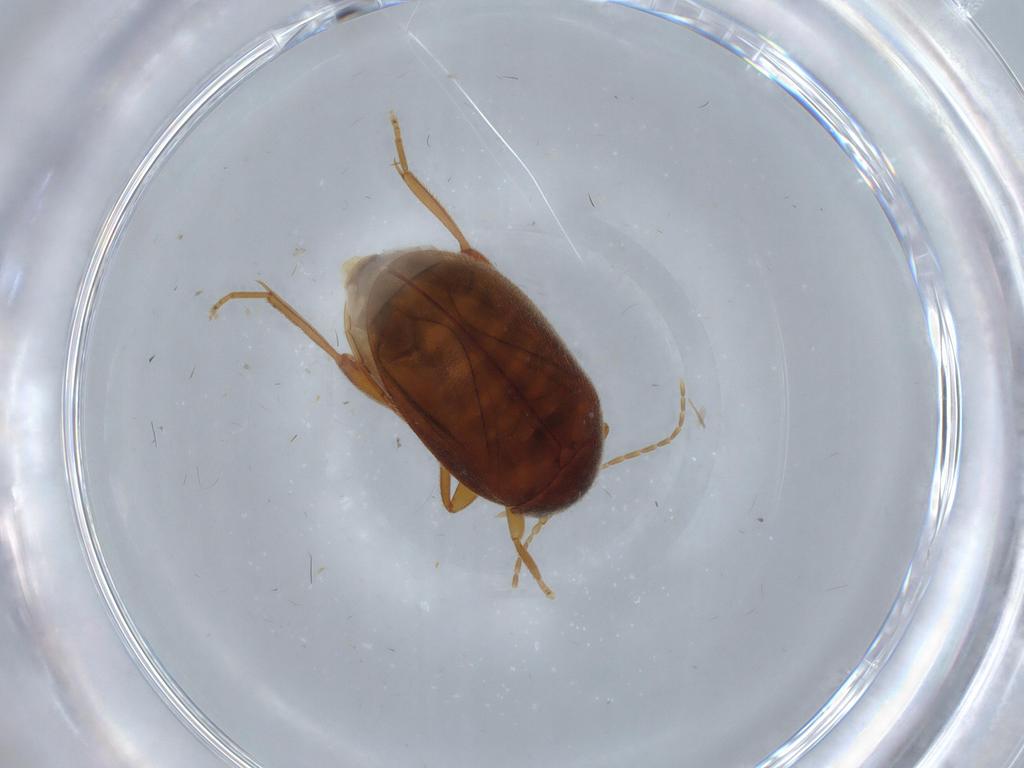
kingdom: Animalia
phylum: Arthropoda
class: Insecta
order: Coleoptera
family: Scirtidae
